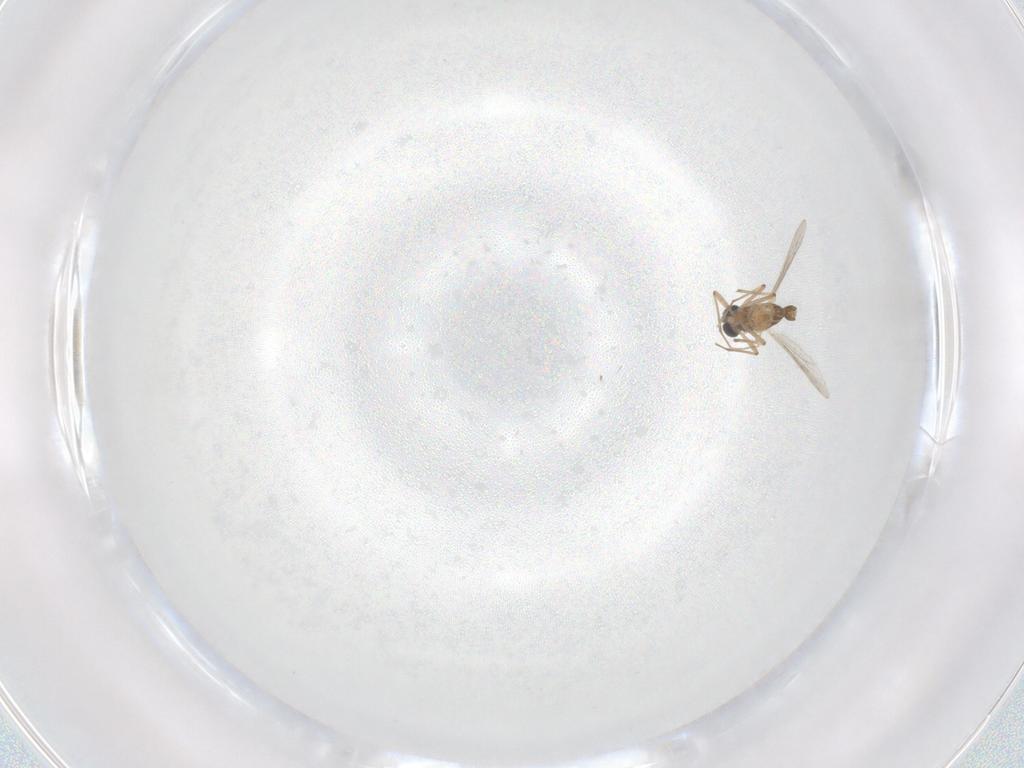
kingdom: Animalia
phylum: Arthropoda
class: Insecta
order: Diptera
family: Chironomidae
